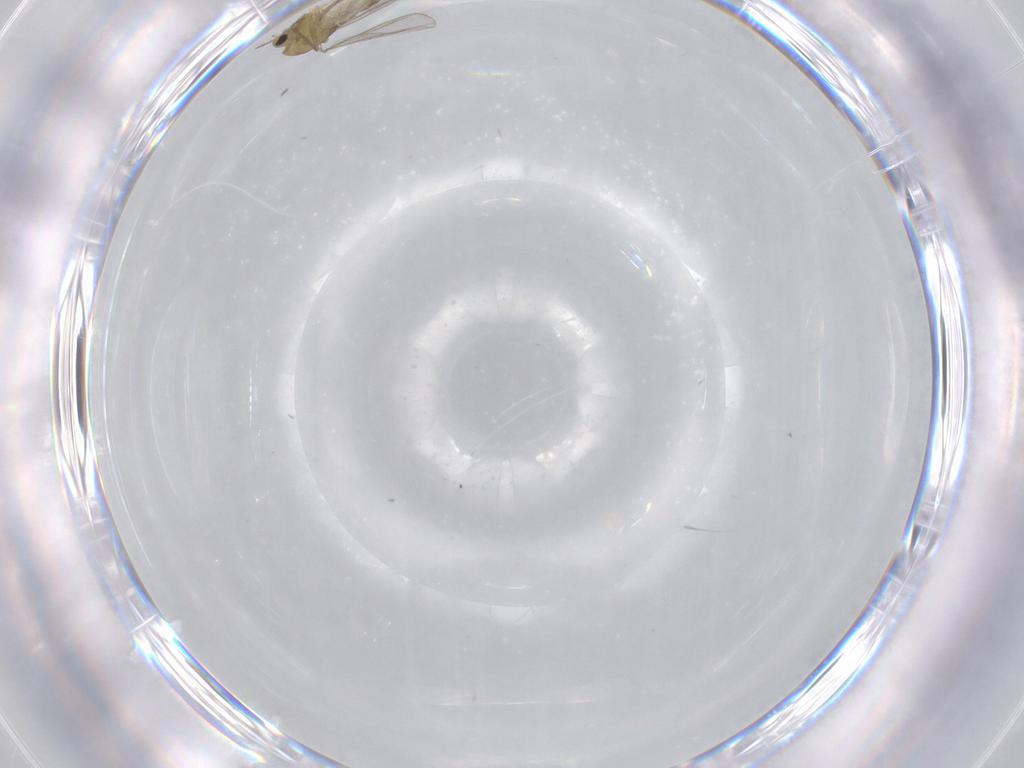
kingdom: Animalia
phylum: Arthropoda
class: Insecta
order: Diptera
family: Chironomidae
